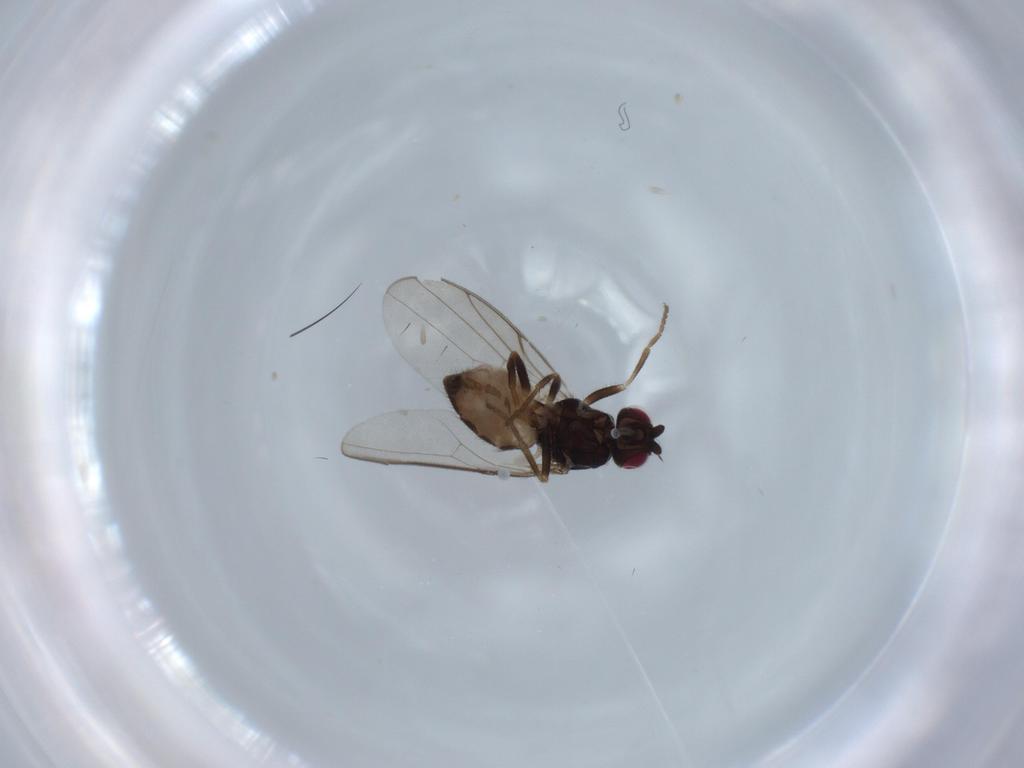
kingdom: Animalia
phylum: Arthropoda
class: Insecta
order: Diptera
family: Chloropidae
